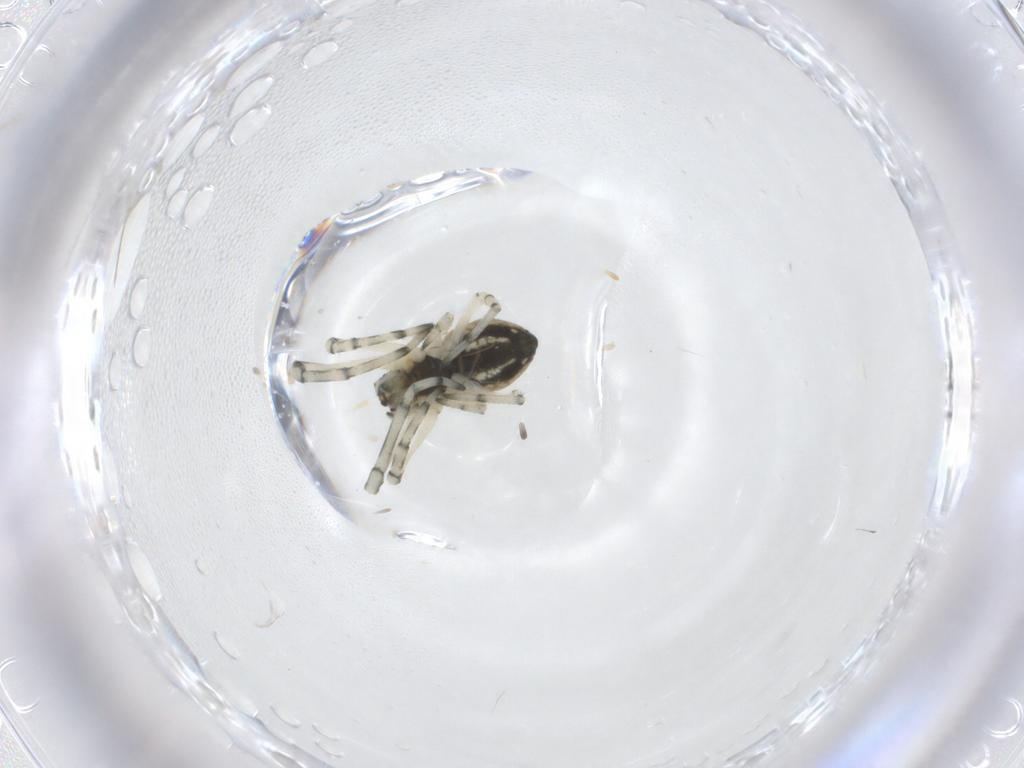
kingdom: Animalia
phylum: Arthropoda
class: Arachnida
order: Araneae
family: Tetragnathidae
